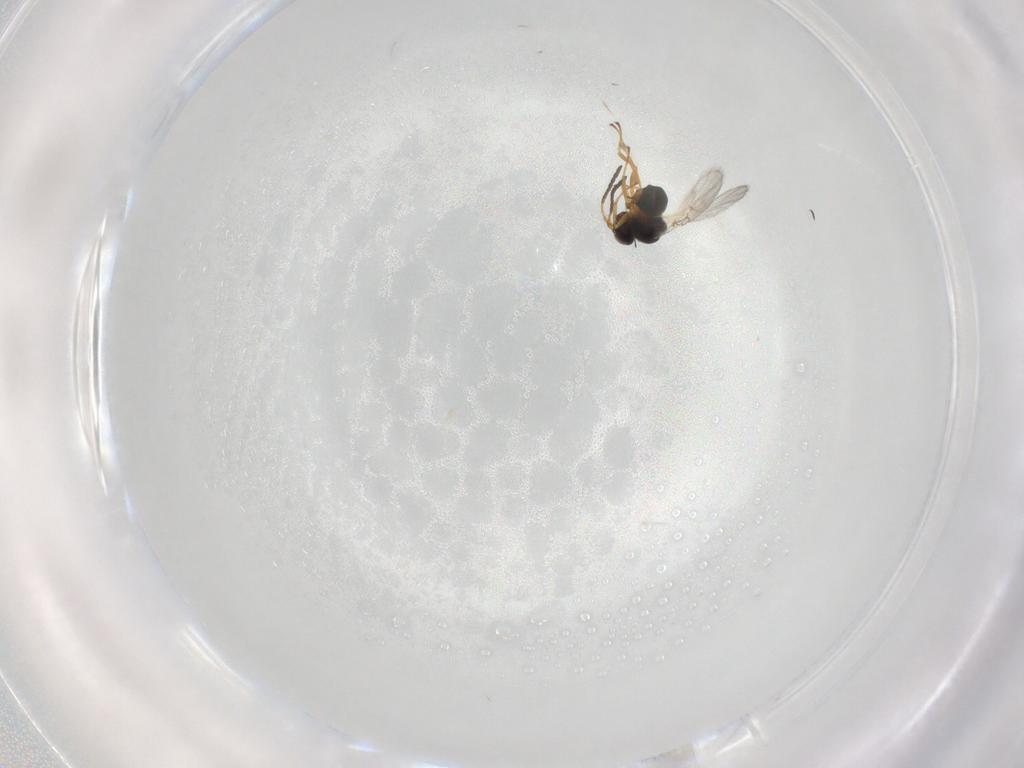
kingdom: Animalia
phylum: Arthropoda
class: Insecta
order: Hymenoptera
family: Figitidae
